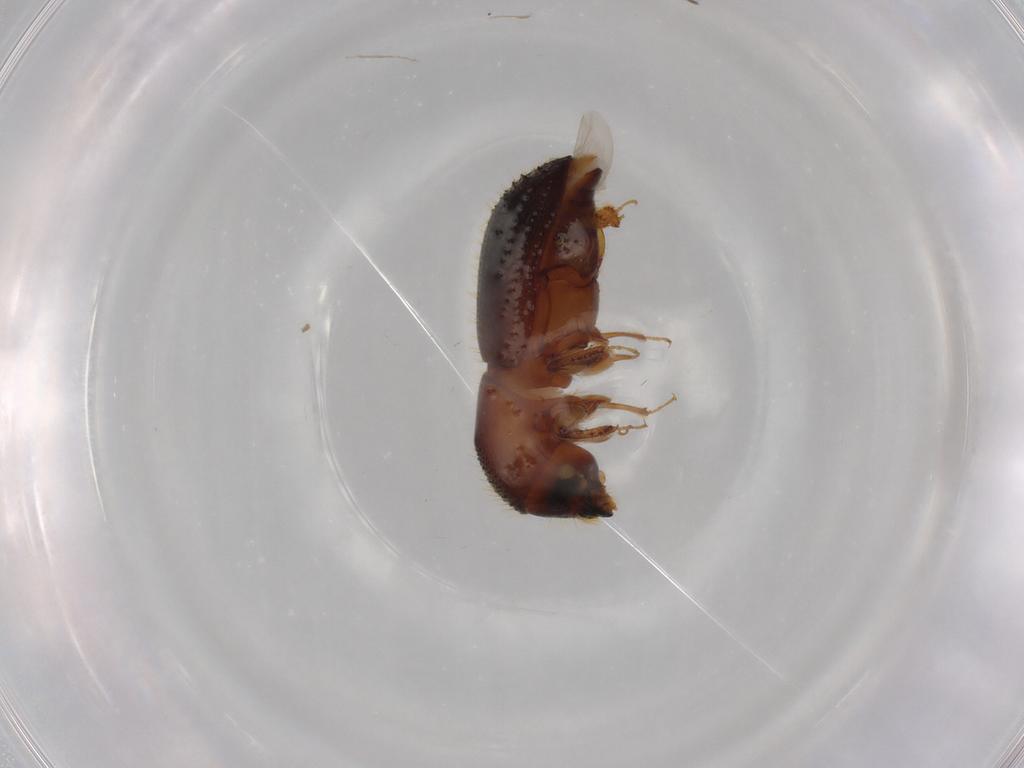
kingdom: Animalia
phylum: Arthropoda
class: Insecta
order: Coleoptera
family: Curculionidae
